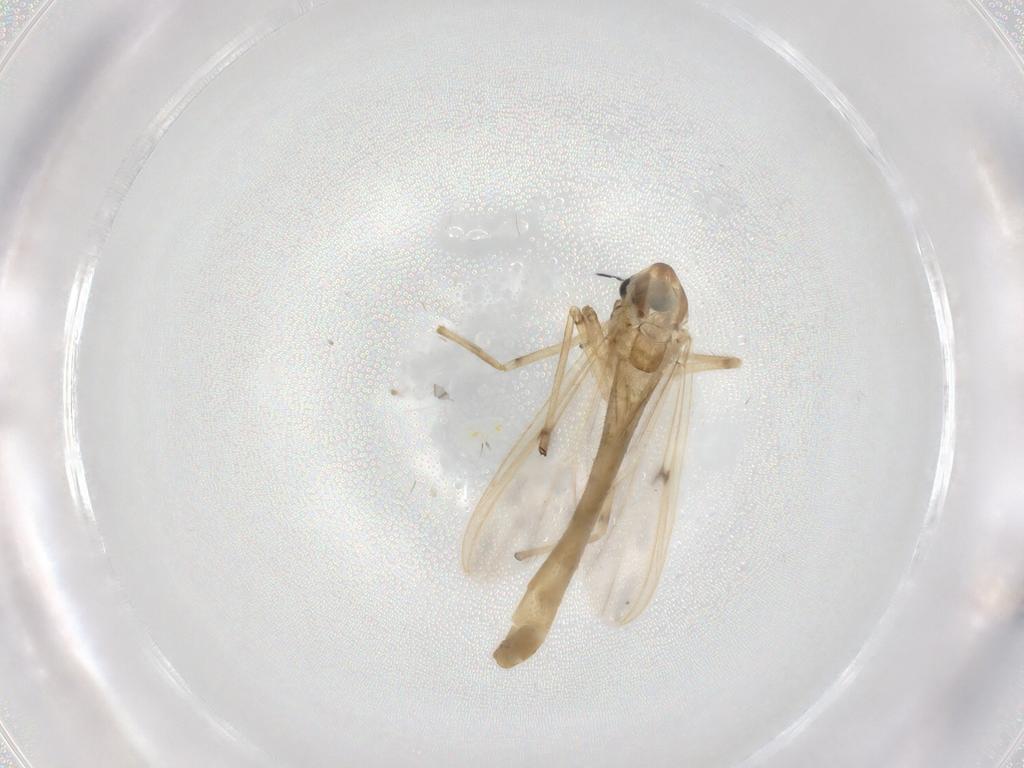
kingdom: Animalia
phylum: Arthropoda
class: Insecta
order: Diptera
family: Chironomidae
